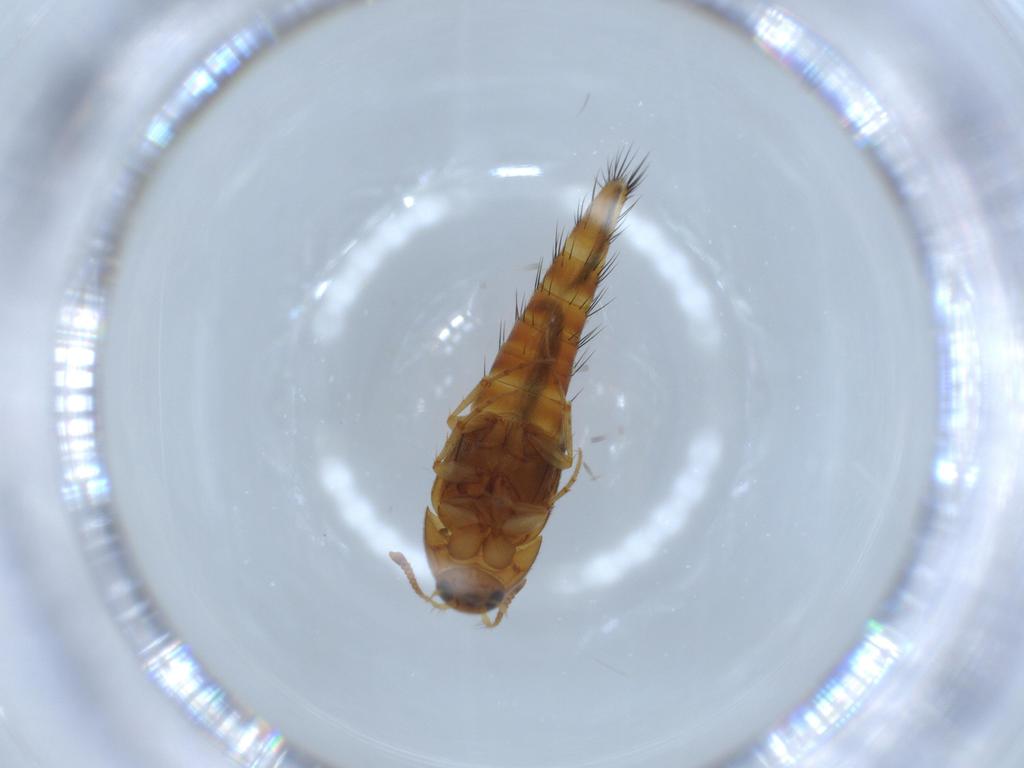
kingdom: Animalia
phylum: Arthropoda
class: Insecta
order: Coleoptera
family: Staphylinidae
